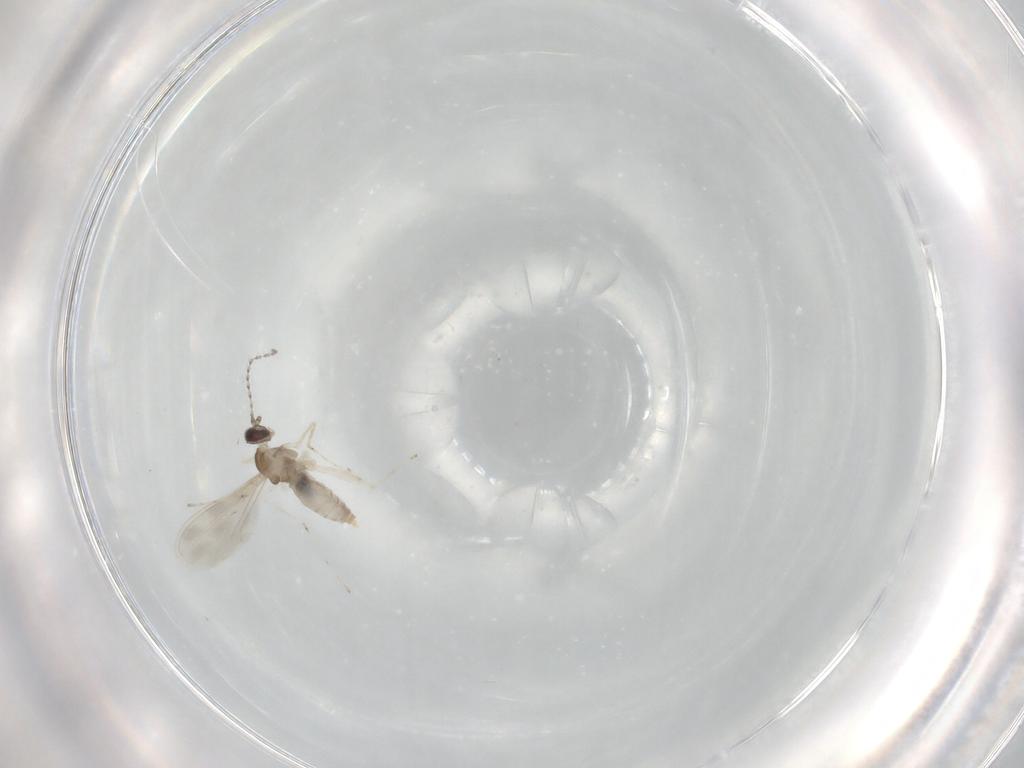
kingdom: Animalia
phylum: Arthropoda
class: Insecta
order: Diptera
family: Cecidomyiidae
